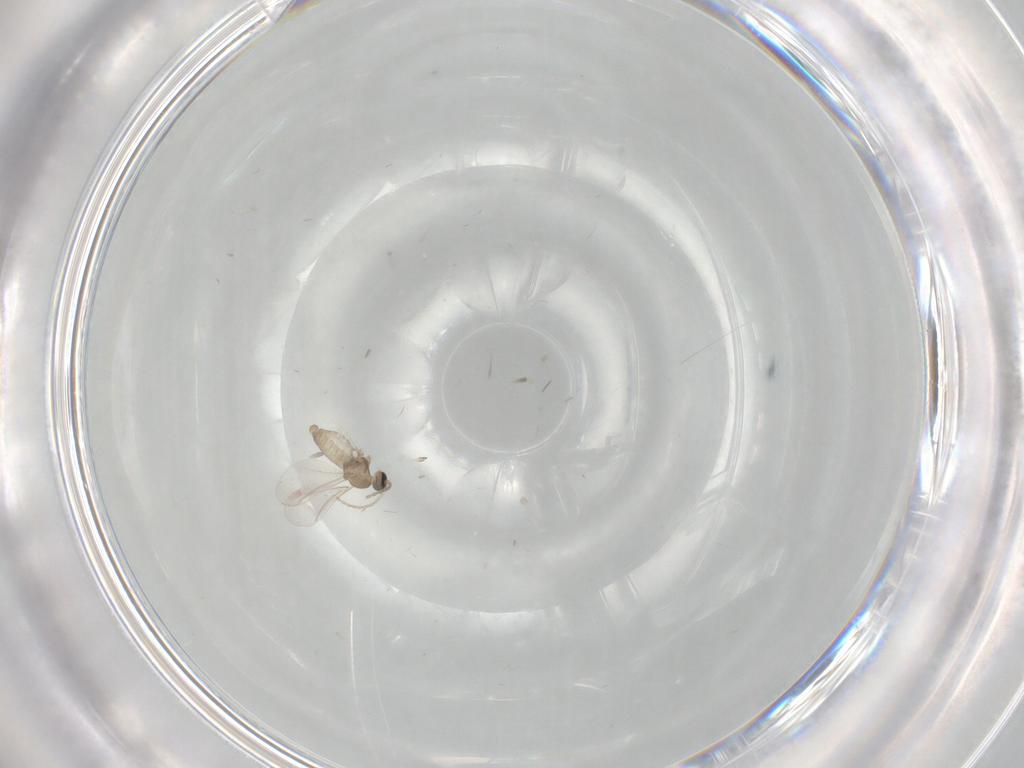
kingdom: Animalia
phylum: Arthropoda
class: Insecta
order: Diptera
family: Cecidomyiidae
